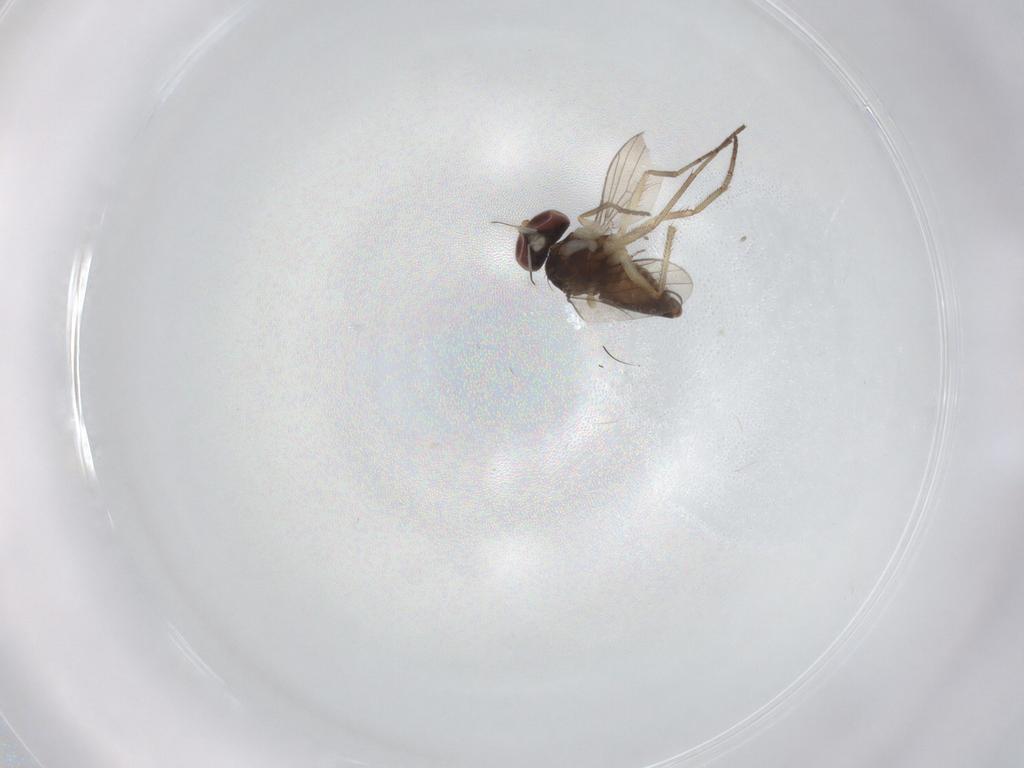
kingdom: Animalia
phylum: Arthropoda
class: Insecta
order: Diptera
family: Dolichopodidae
